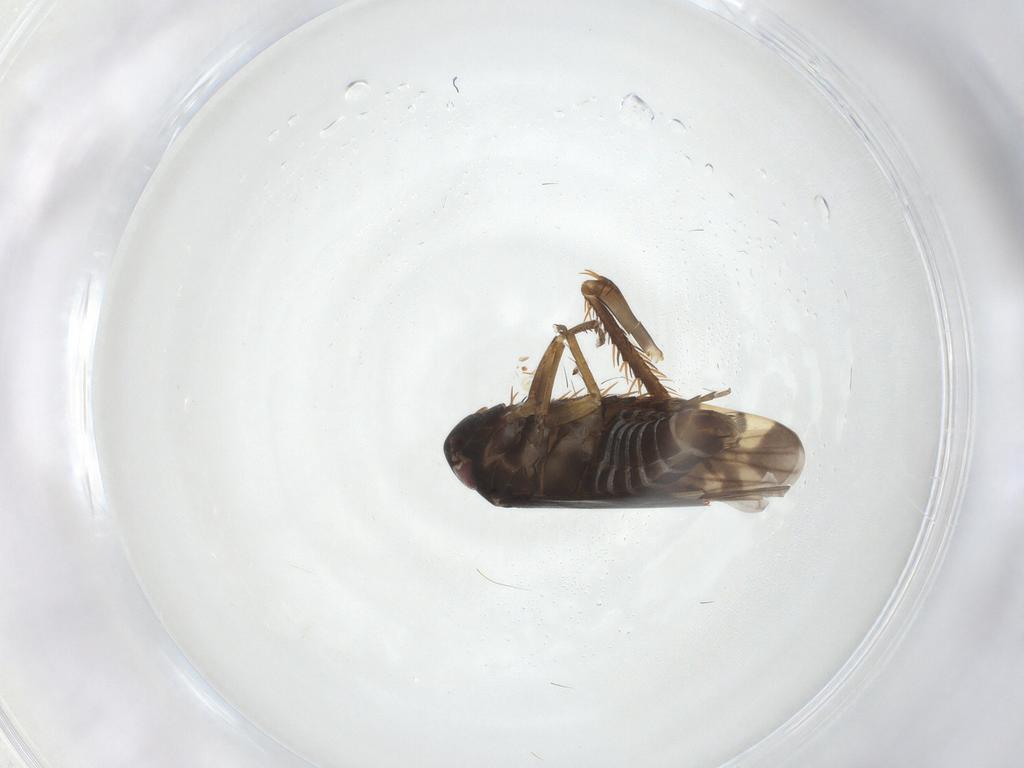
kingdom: Animalia
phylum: Arthropoda
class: Insecta
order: Hemiptera
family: Cicadellidae
